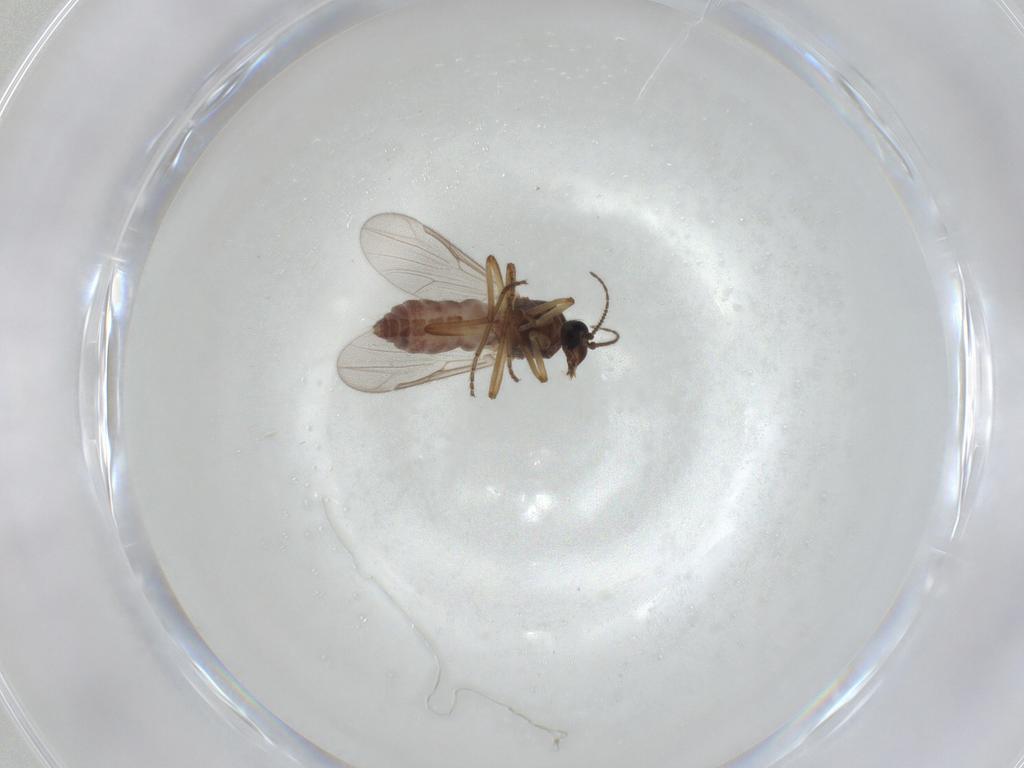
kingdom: Animalia
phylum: Arthropoda
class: Insecta
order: Diptera
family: Ceratopogonidae
